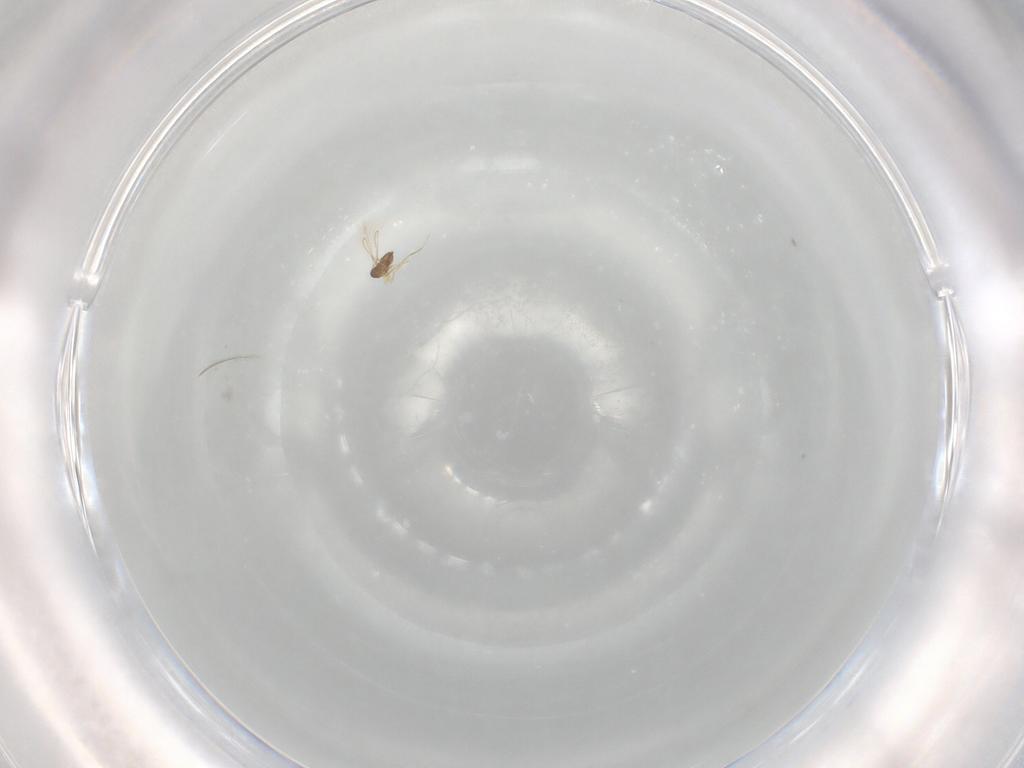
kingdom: Animalia
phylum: Arthropoda
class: Insecta
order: Hymenoptera
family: Mymaridae
